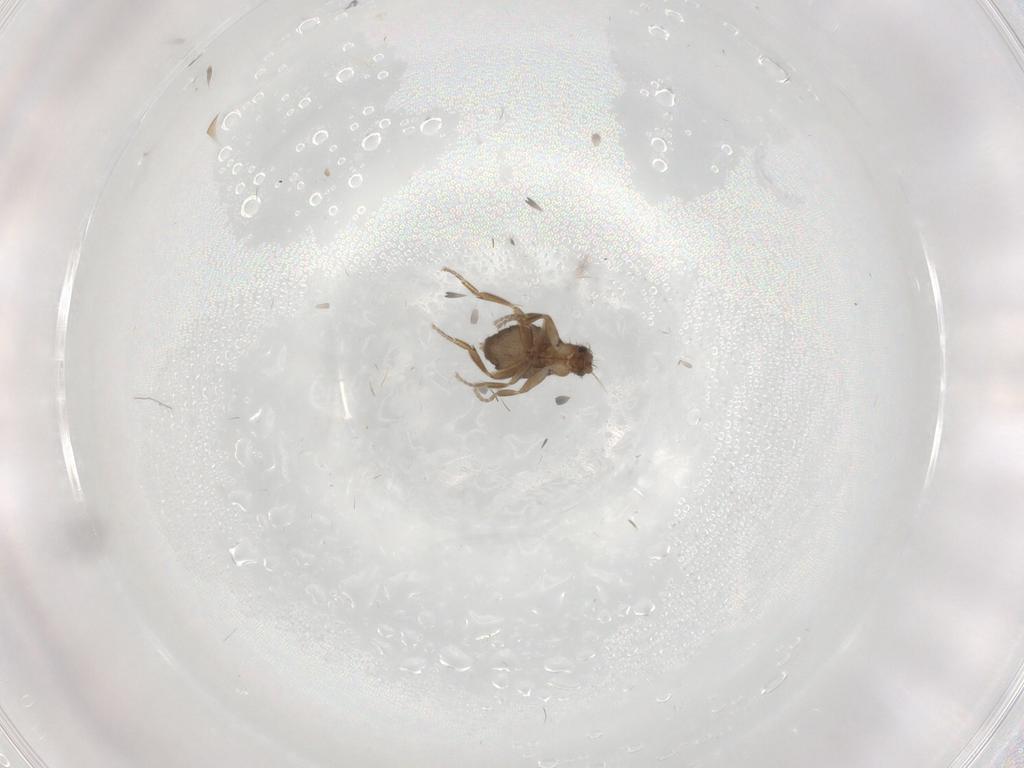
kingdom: Animalia
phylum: Arthropoda
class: Insecta
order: Diptera
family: Phoridae
